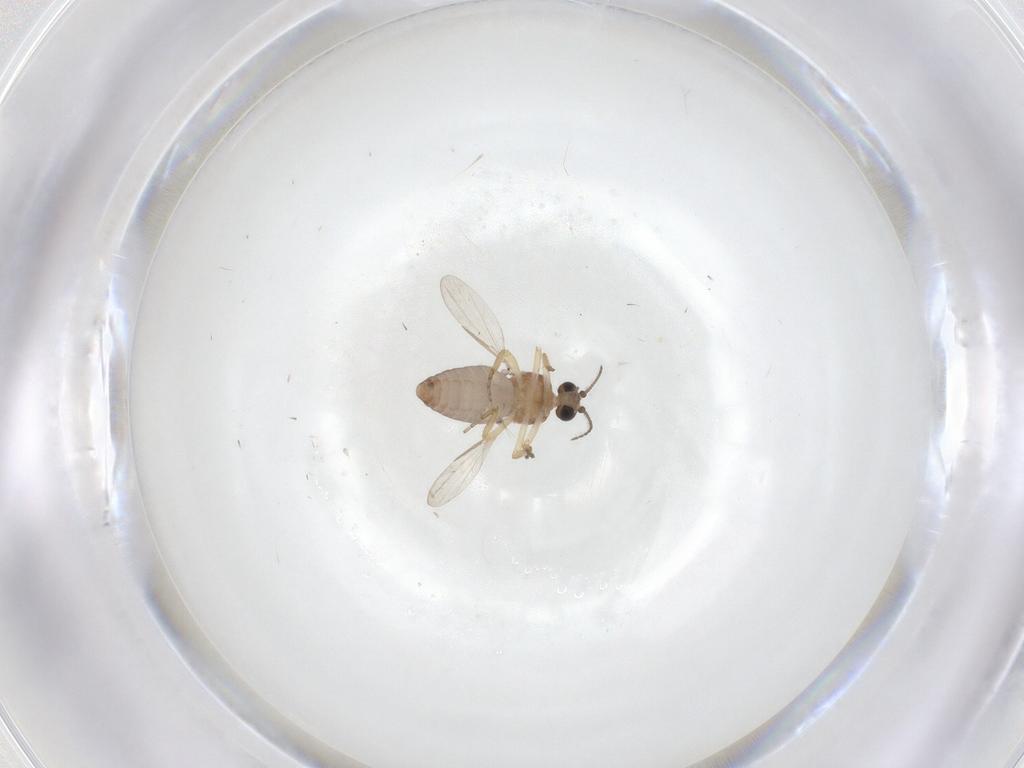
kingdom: Animalia
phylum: Arthropoda
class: Insecta
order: Diptera
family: Ceratopogonidae
